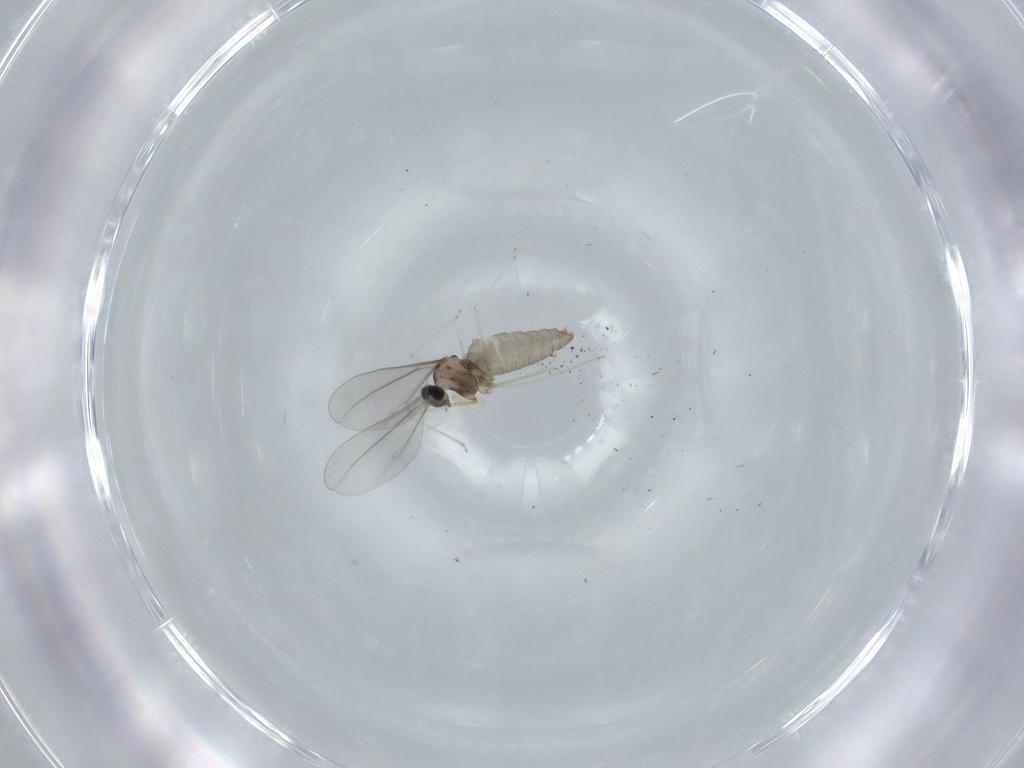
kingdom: Animalia
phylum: Arthropoda
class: Insecta
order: Diptera
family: Cecidomyiidae
